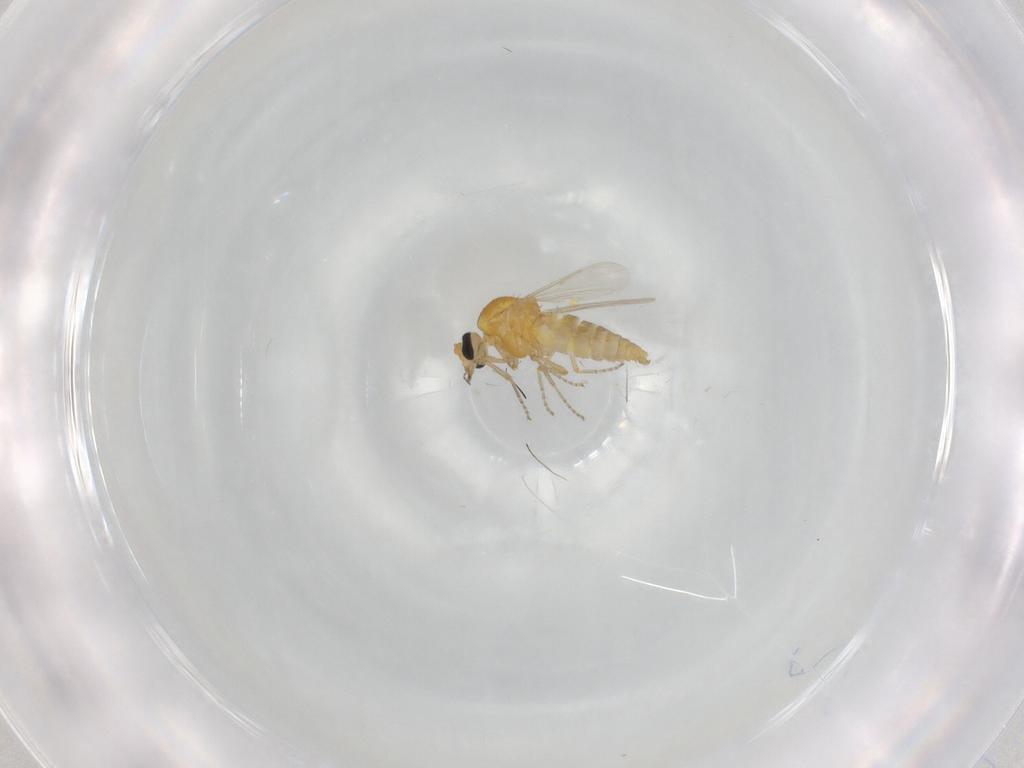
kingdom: Animalia
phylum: Arthropoda
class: Insecta
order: Diptera
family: Ceratopogonidae
